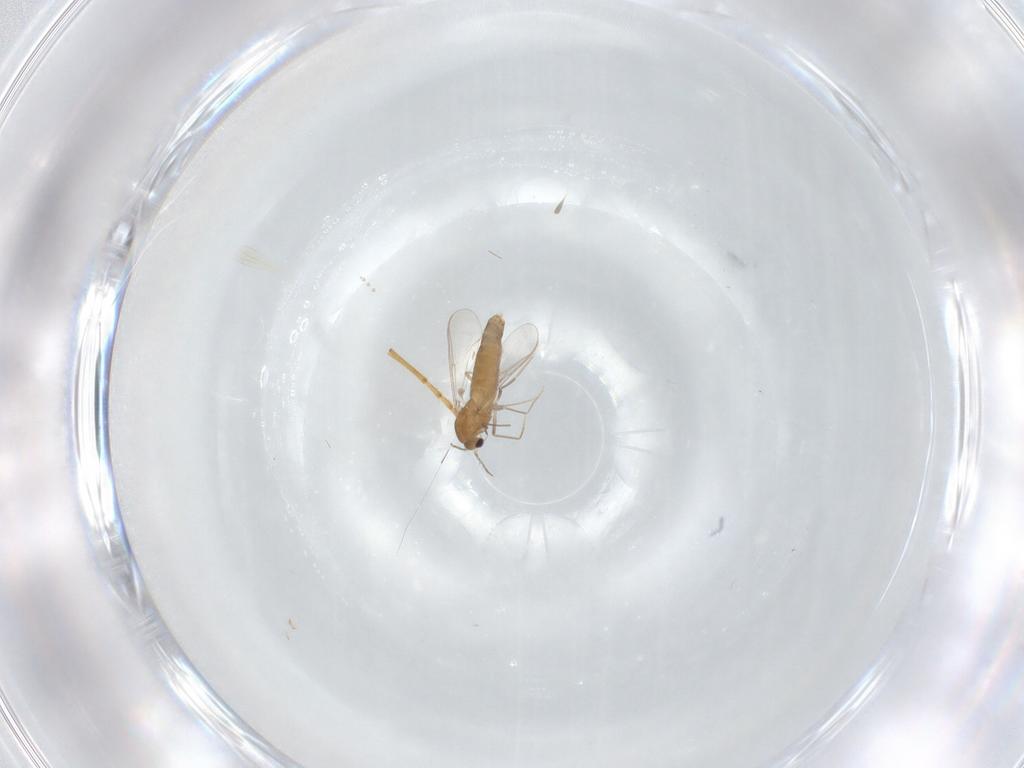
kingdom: Animalia
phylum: Arthropoda
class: Insecta
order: Diptera
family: Chironomidae
